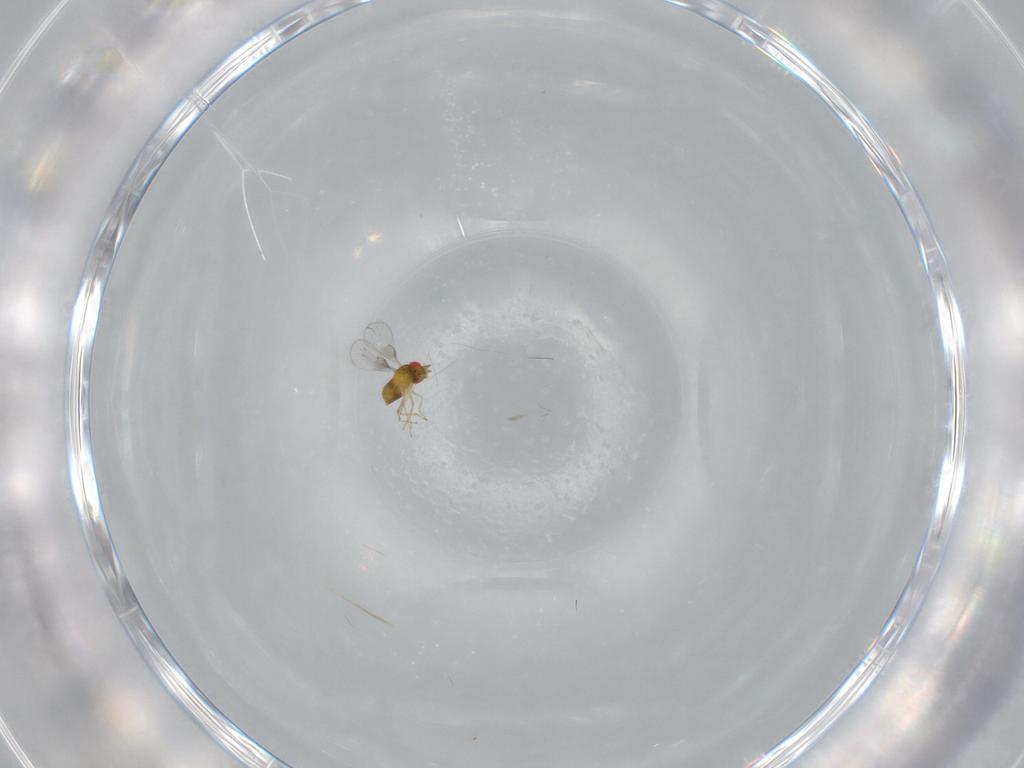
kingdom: Animalia
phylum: Arthropoda
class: Insecta
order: Hymenoptera
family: Trichogrammatidae
